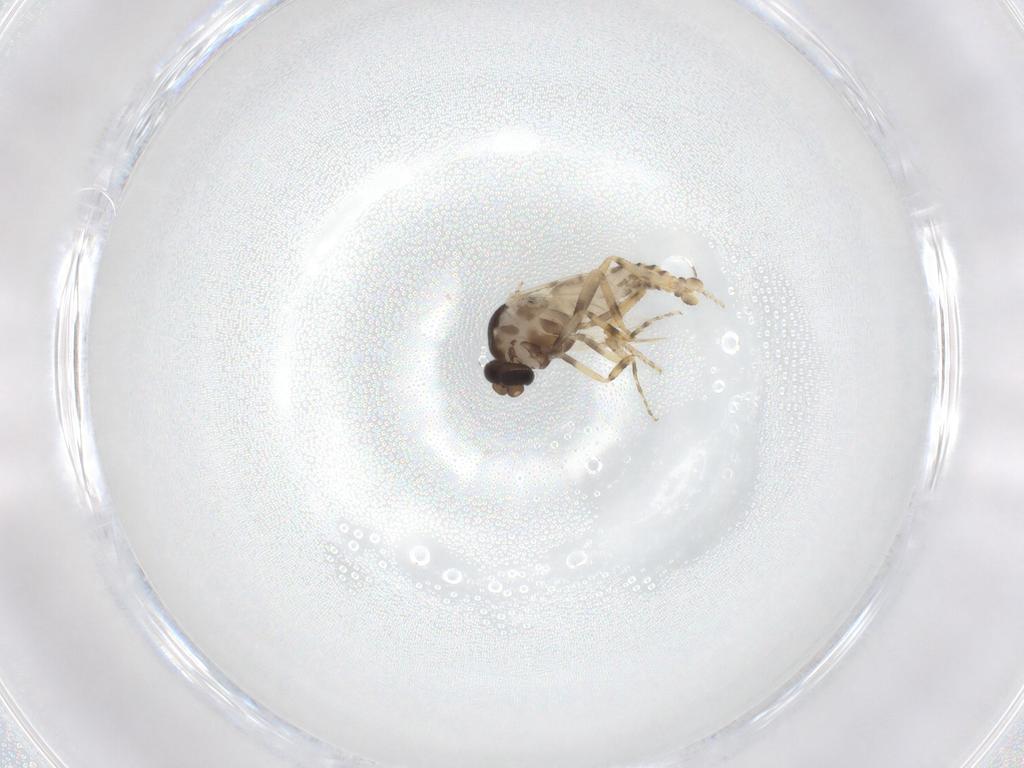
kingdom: Animalia
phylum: Arthropoda
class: Insecta
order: Diptera
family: Ceratopogonidae
